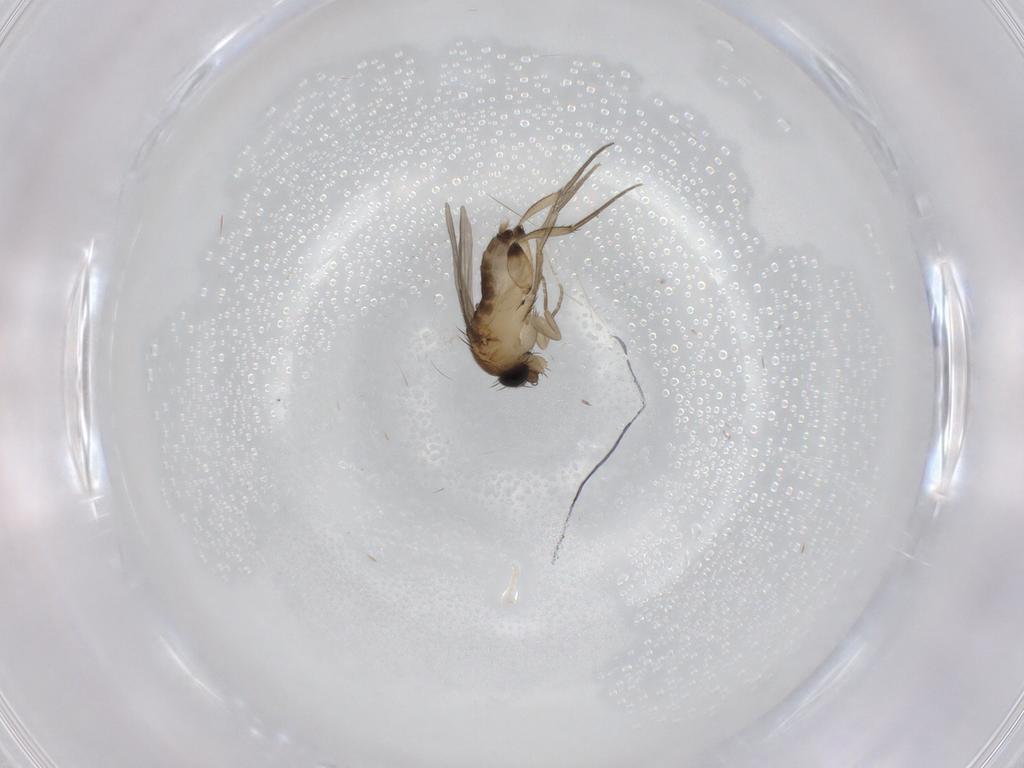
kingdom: Animalia
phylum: Arthropoda
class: Insecta
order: Diptera
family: Phoridae
